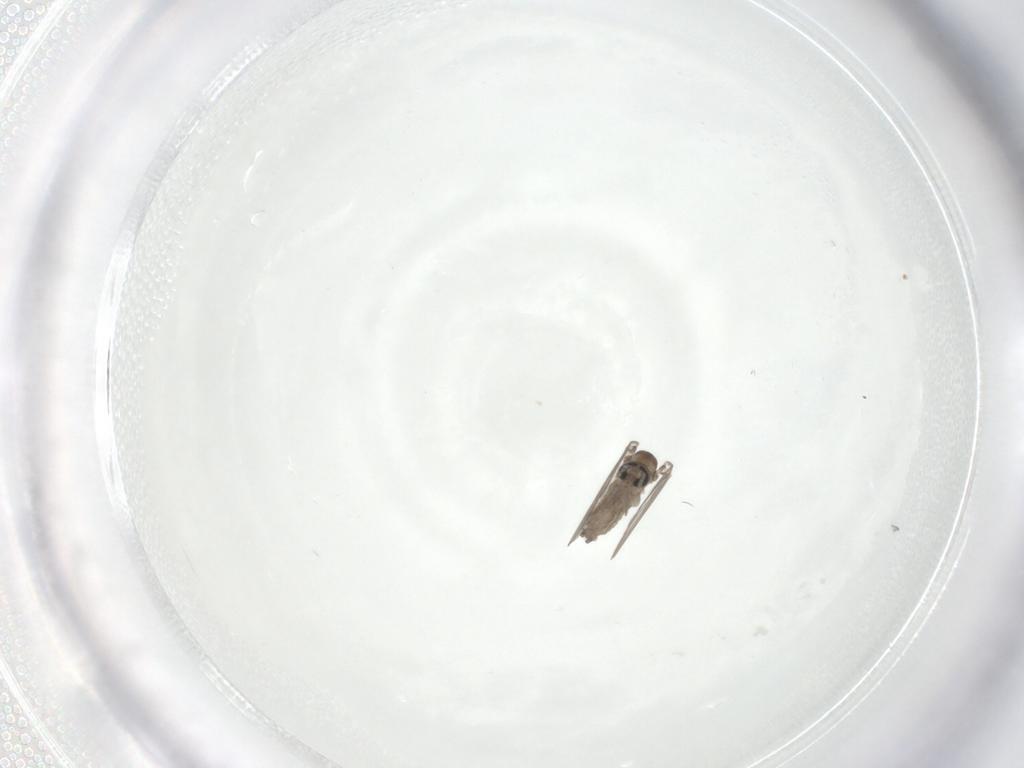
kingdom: Animalia
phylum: Arthropoda
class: Insecta
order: Diptera
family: Psychodidae
